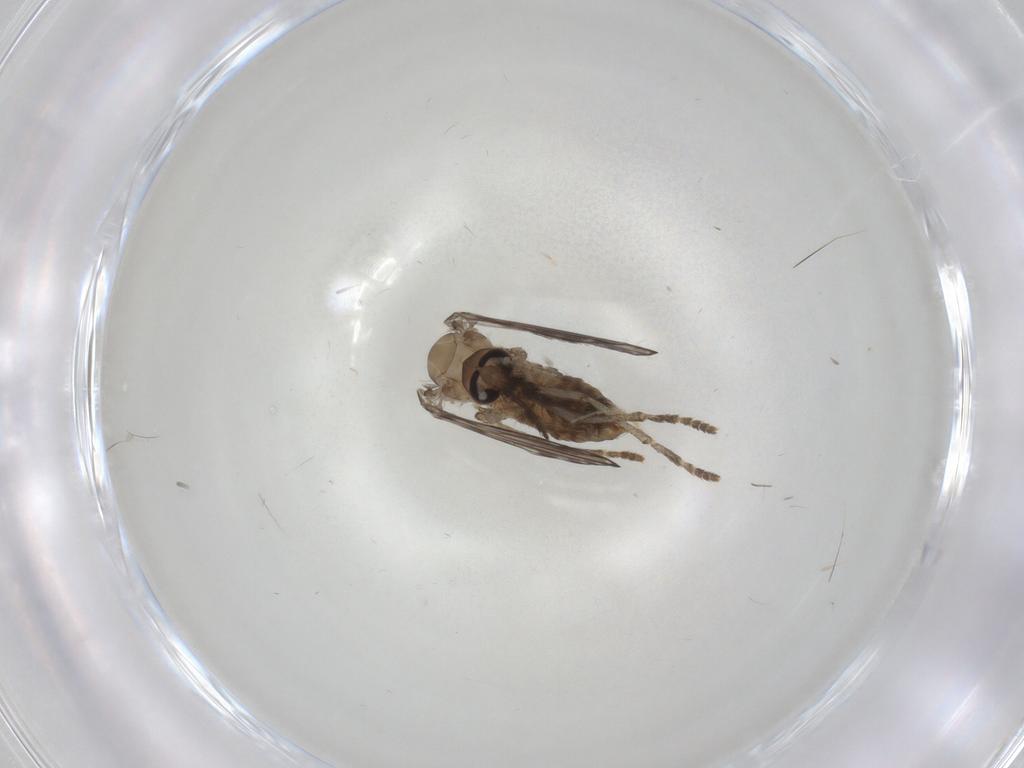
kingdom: Animalia
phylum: Arthropoda
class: Insecta
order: Diptera
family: Psychodidae
